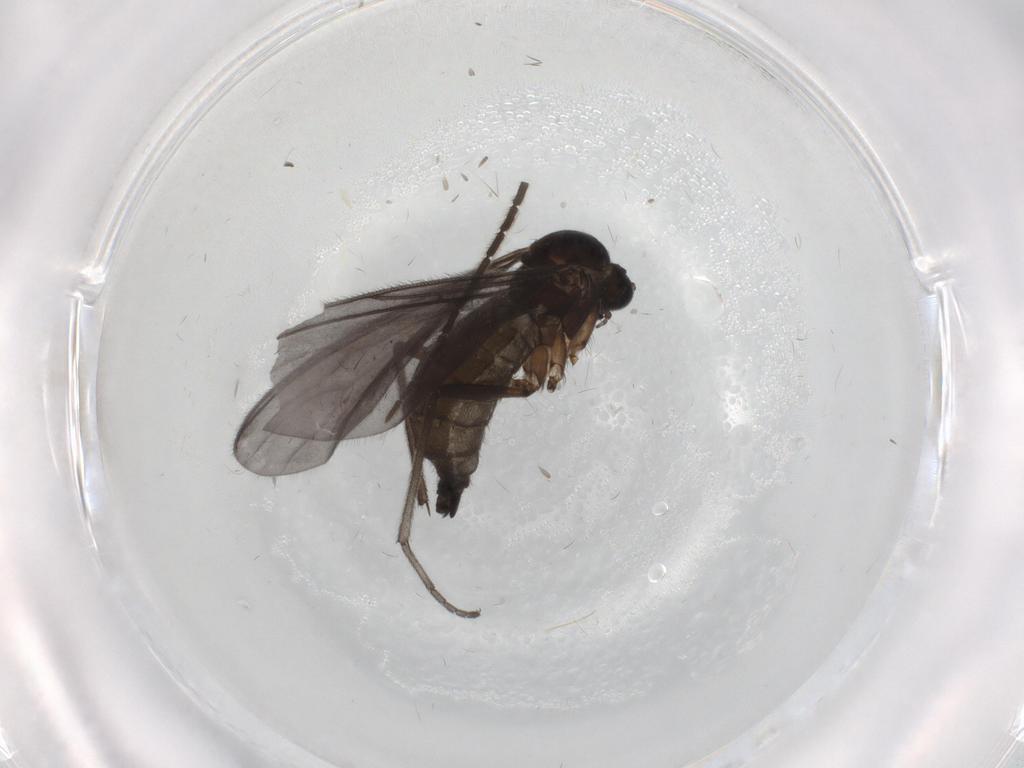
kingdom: Animalia
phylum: Arthropoda
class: Insecta
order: Diptera
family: Sciaridae
